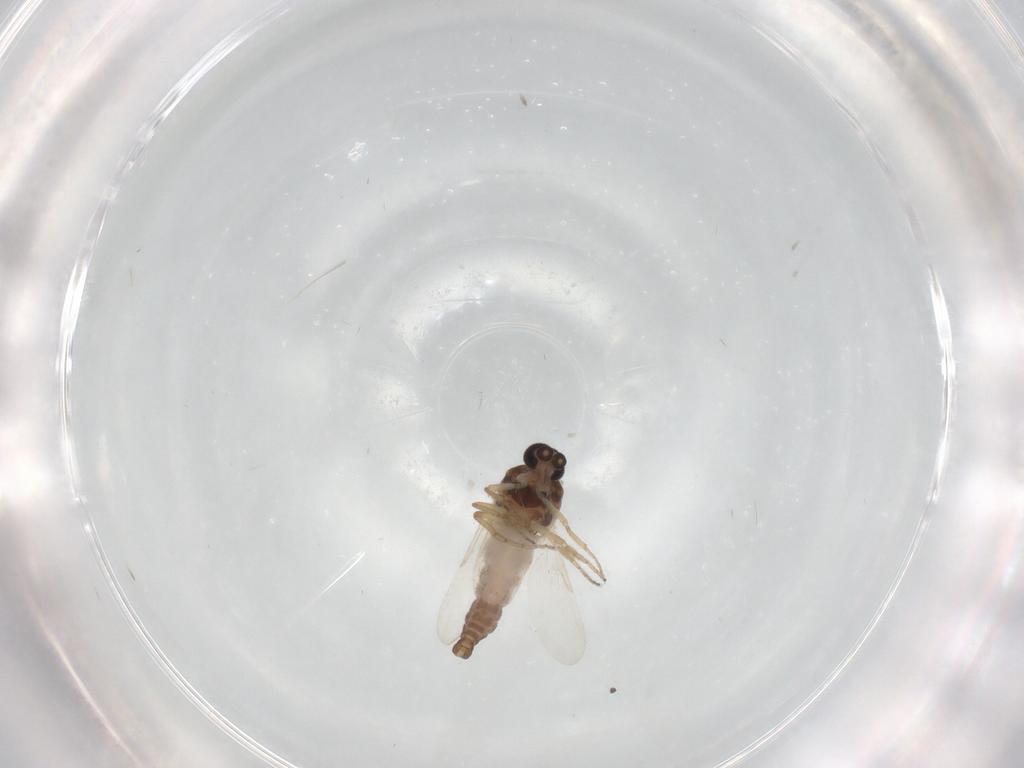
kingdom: Animalia
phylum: Arthropoda
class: Insecta
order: Diptera
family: Ceratopogonidae
